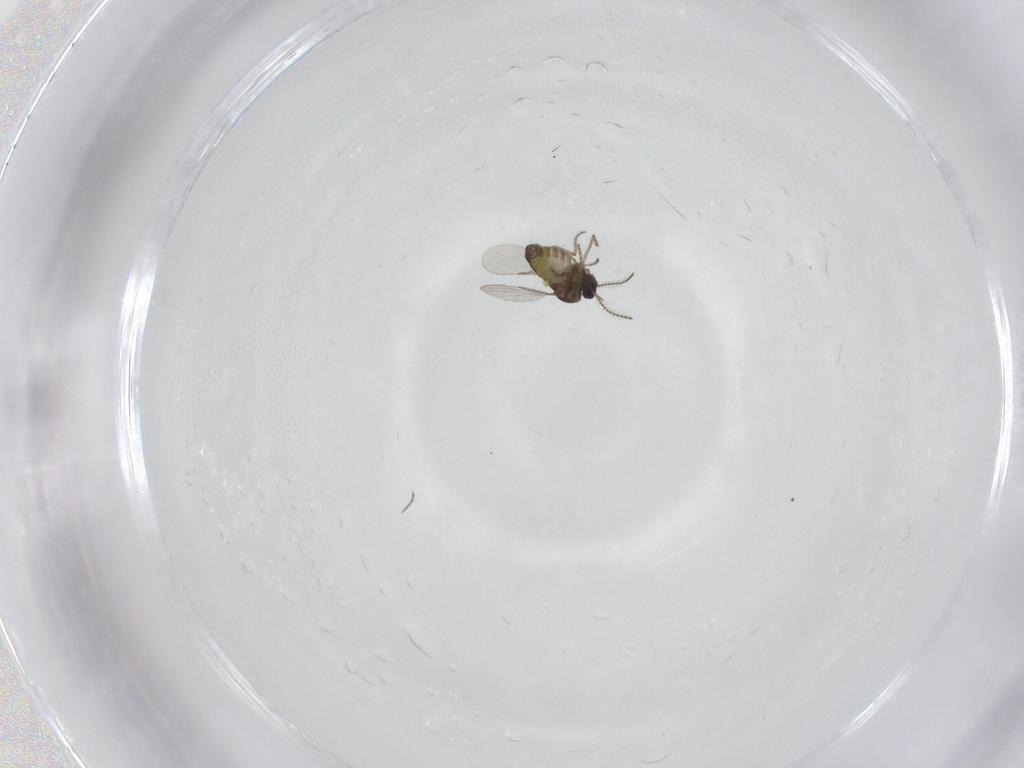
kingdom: Animalia
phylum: Arthropoda
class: Insecta
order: Diptera
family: Ceratopogonidae
